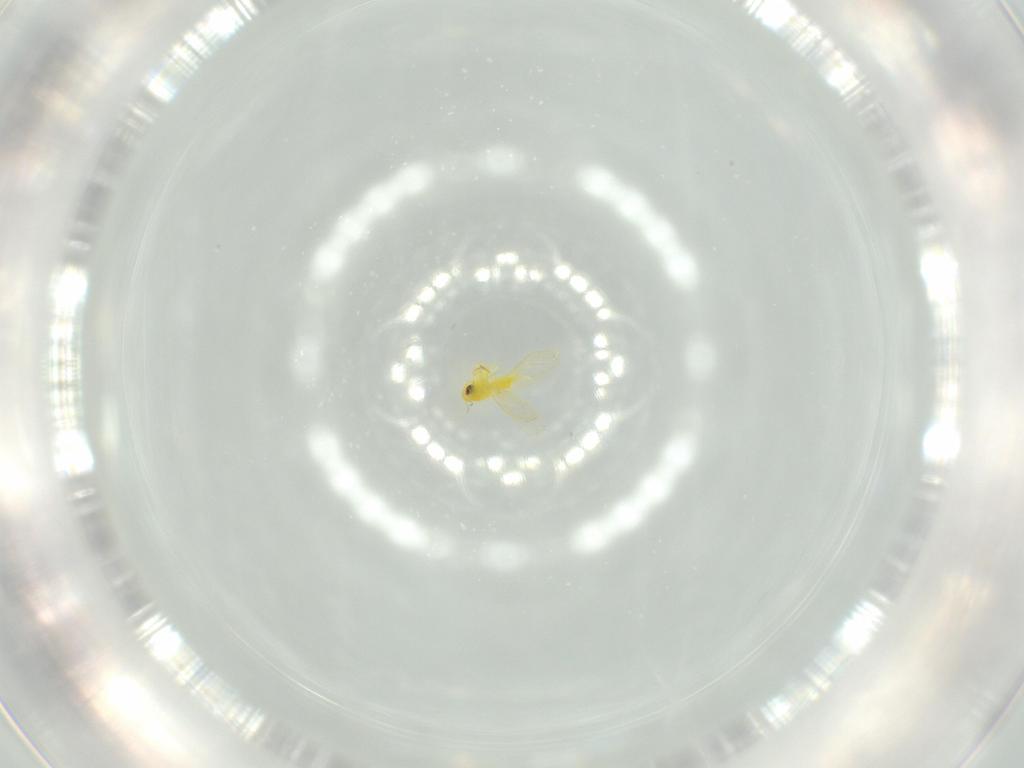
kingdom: Animalia
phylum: Arthropoda
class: Insecta
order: Hemiptera
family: Aleyrodidae
